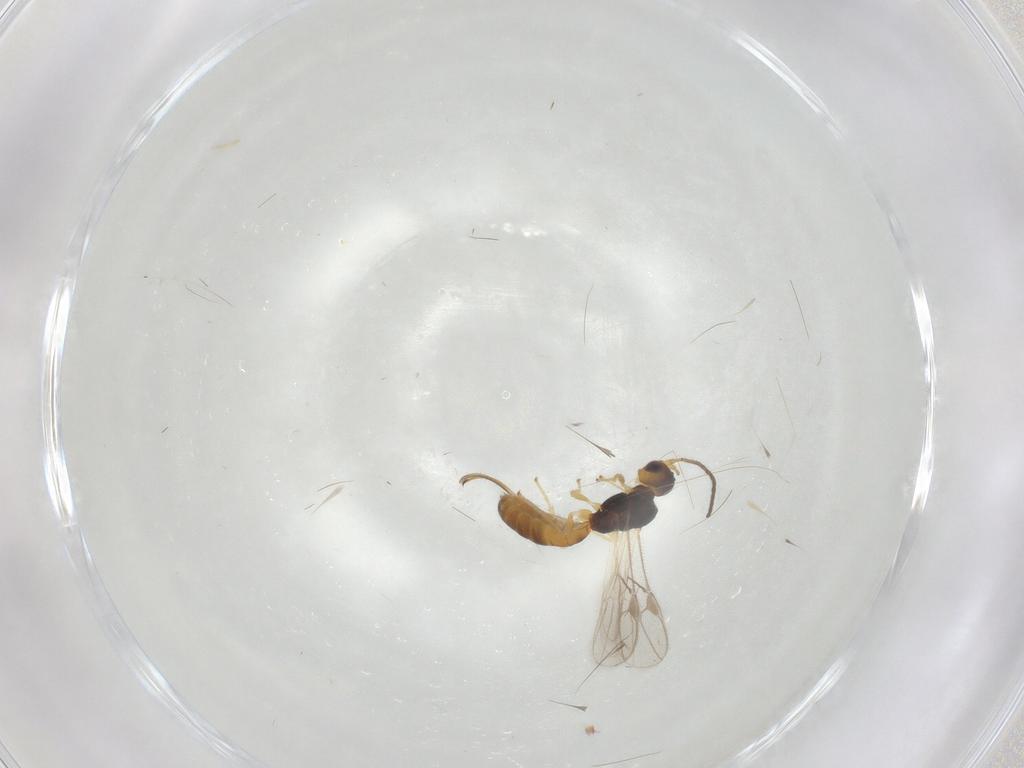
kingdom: Animalia
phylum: Arthropoda
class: Insecta
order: Hymenoptera
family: Braconidae
